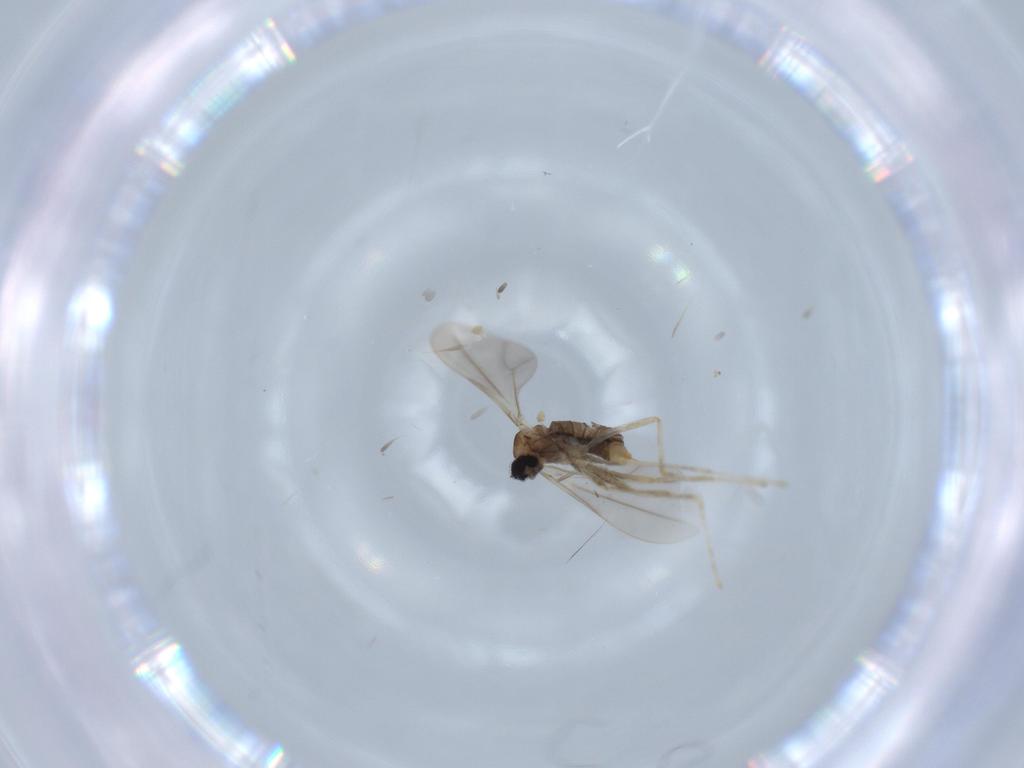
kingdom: Animalia
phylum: Arthropoda
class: Insecta
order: Diptera
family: Cecidomyiidae
